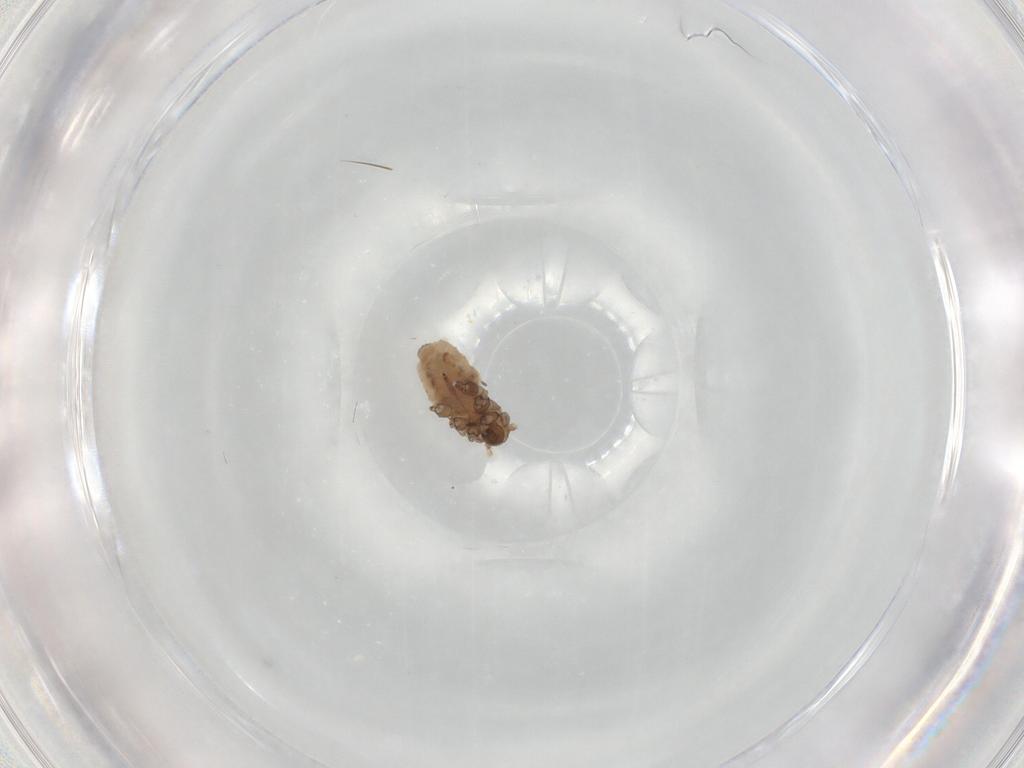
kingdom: Animalia
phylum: Arthropoda
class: Insecta
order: Hemiptera
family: Aphididae
